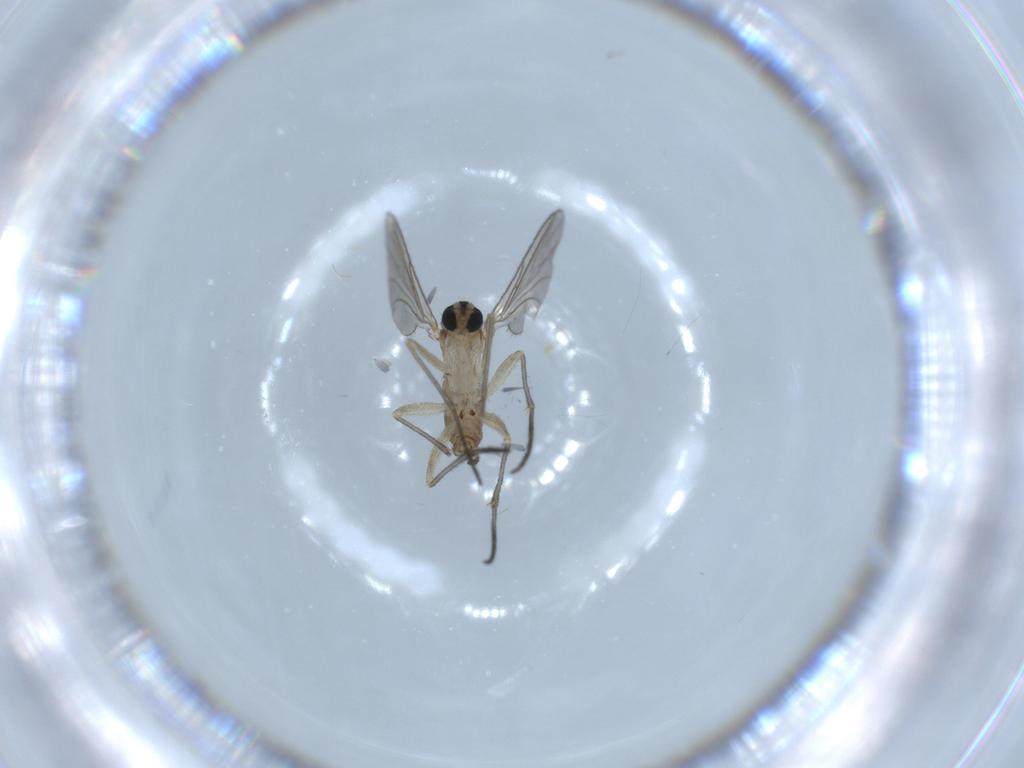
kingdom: Animalia
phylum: Arthropoda
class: Insecta
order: Diptera
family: Sciaridae
